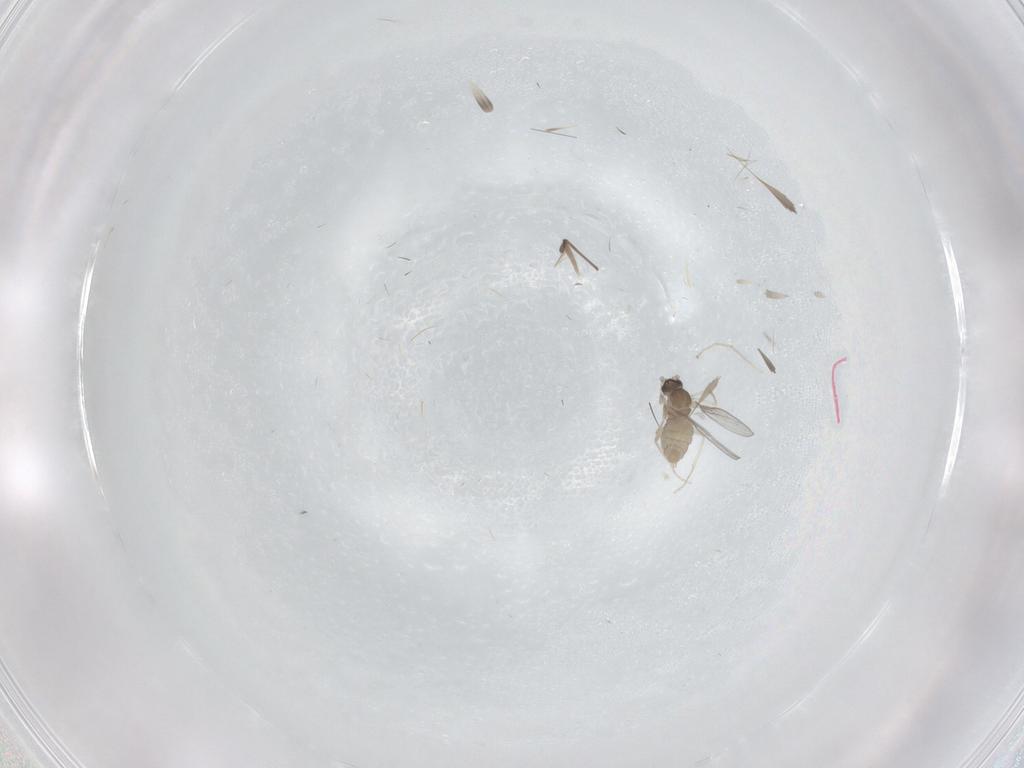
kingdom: Animalia
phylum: Arthropoda
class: Insecta
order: Diptera
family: Cecidomyiidae
